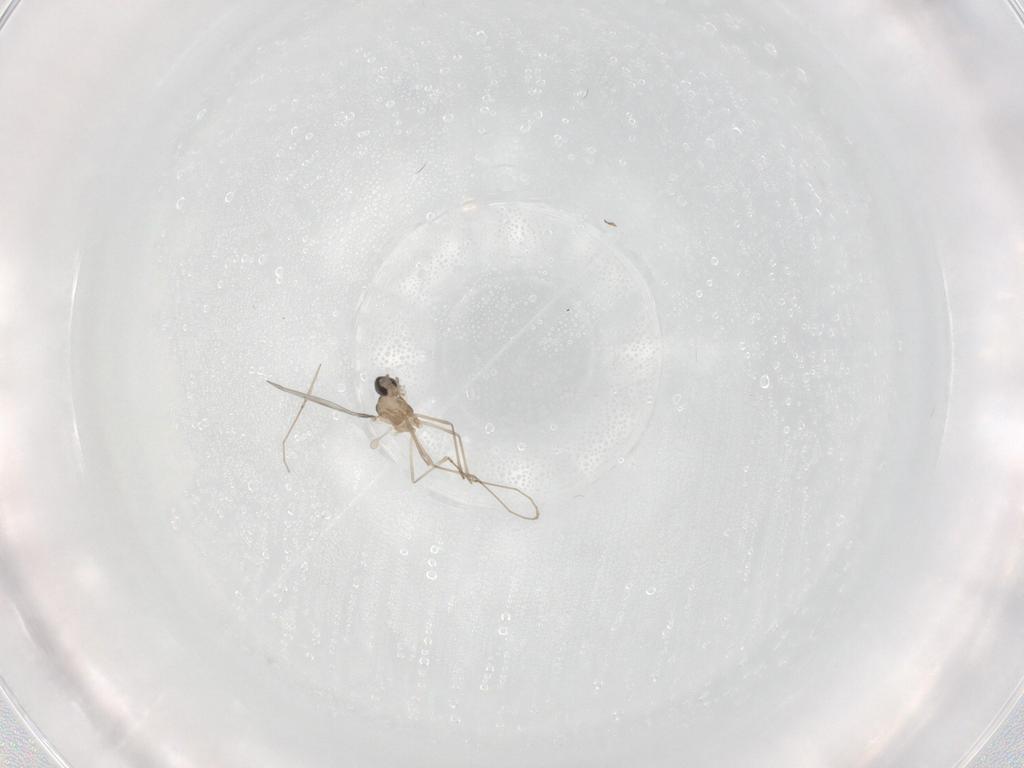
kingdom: Animalia
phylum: Arthropoda
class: Insecta
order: Diptera
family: Cecidomyiidae
